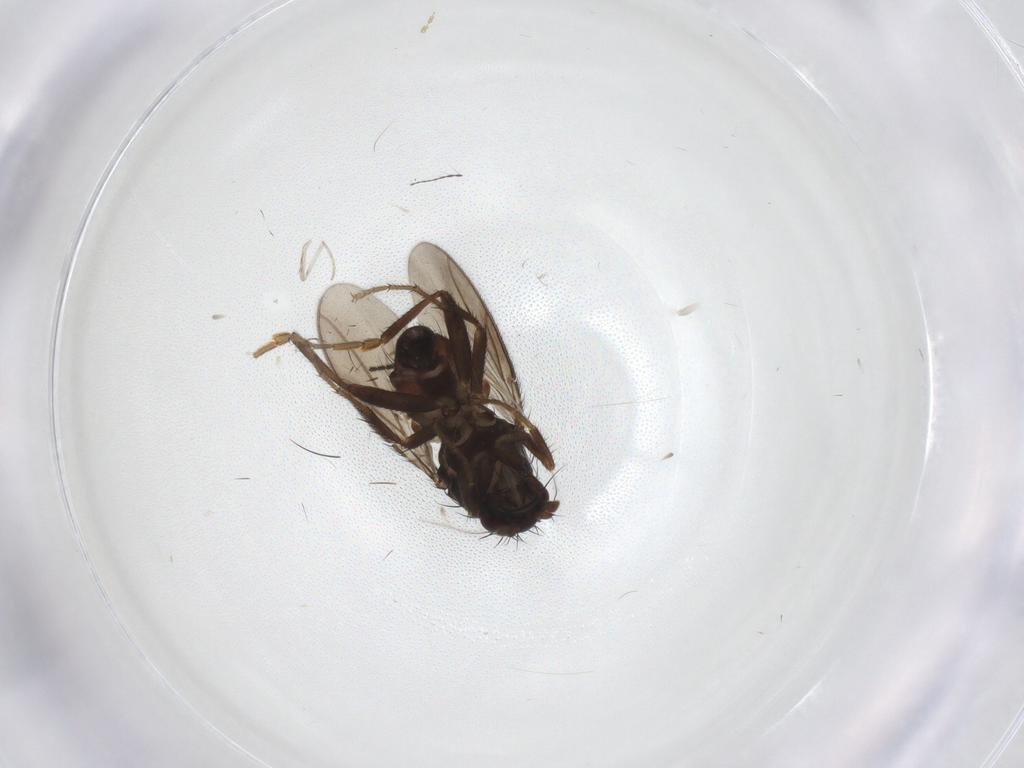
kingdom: Animalia
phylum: Arthropoda
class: Insecta
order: Diptera
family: Sphaeroceridae
